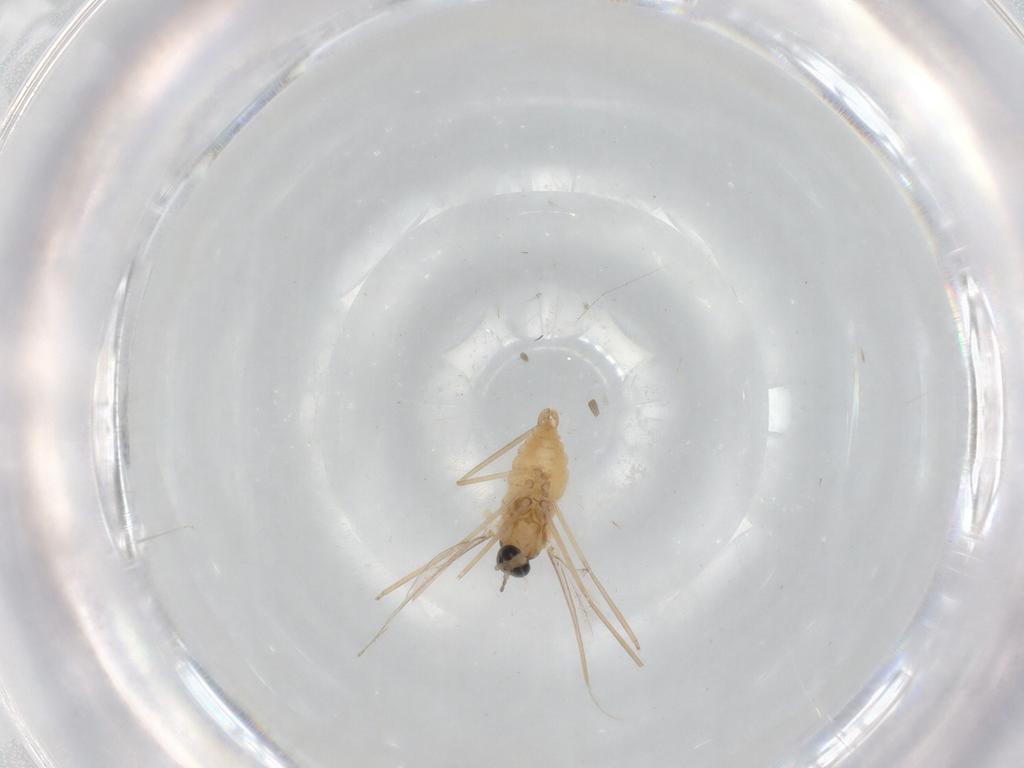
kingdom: Animalia
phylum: Arthropoda
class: Insecta
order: Diptera
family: Cecidomyiidae
